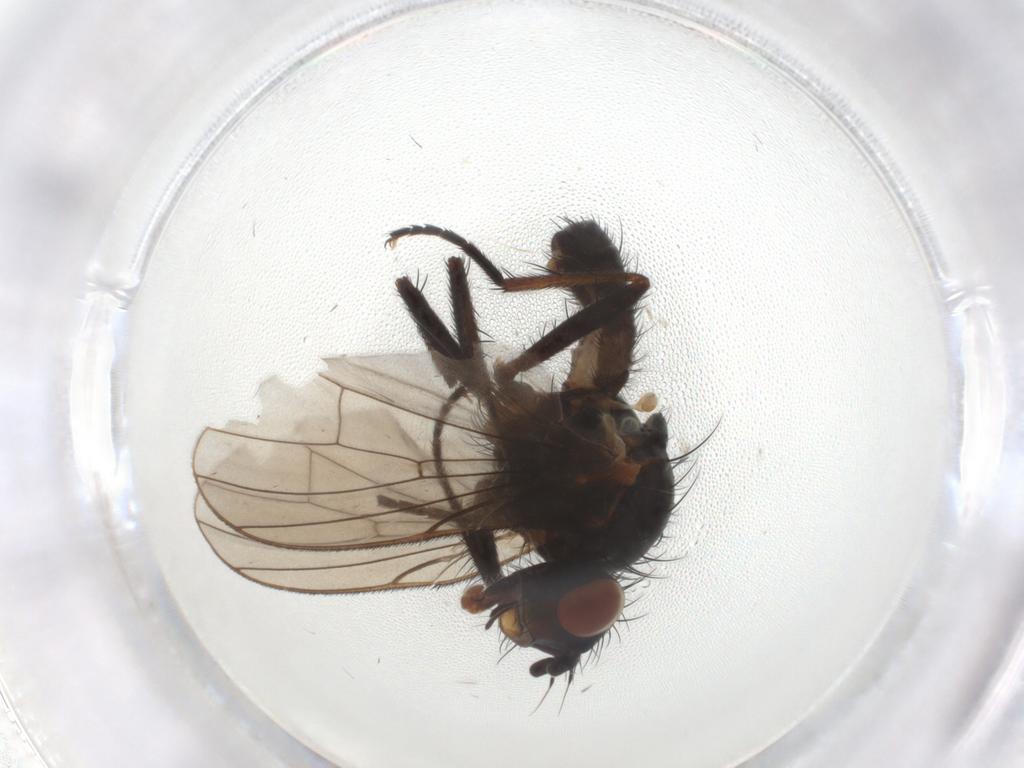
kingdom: Animalia
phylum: Arthropoda
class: Insecta
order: Diptera
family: Anthomyiidae
